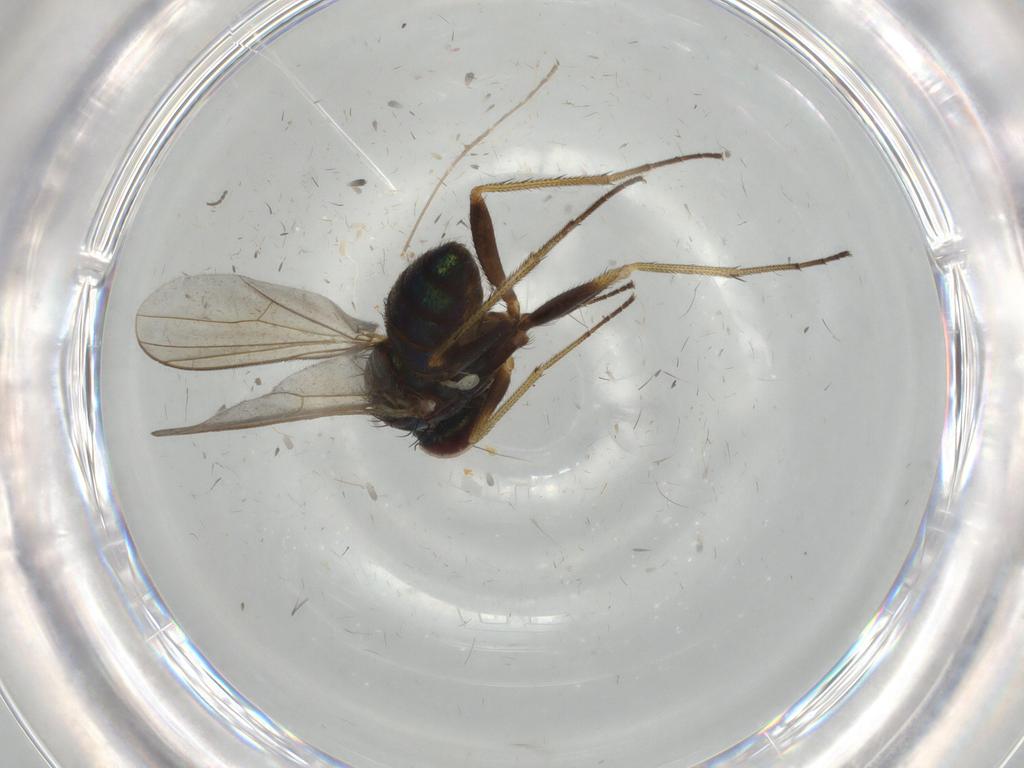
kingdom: Animalia
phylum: Arthropoda
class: Insecta
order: Diptera
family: Dolichopodidae
